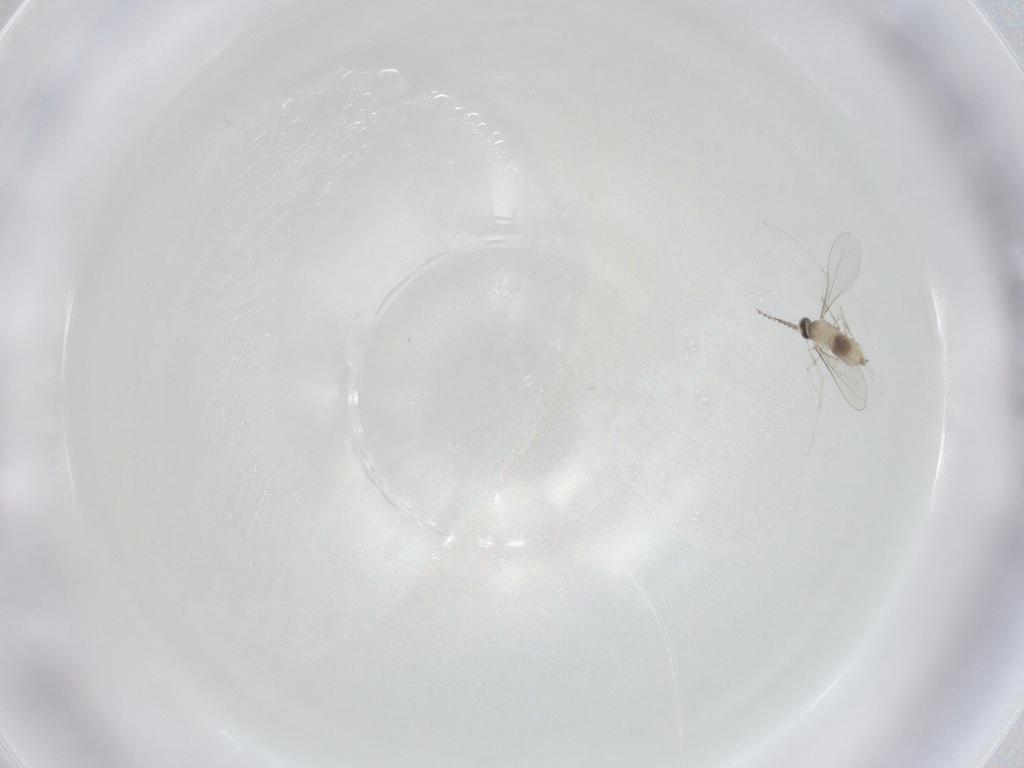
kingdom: Animalia
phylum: Arthropoda
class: Insecta
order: Diptera
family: Cecidomyiidae
